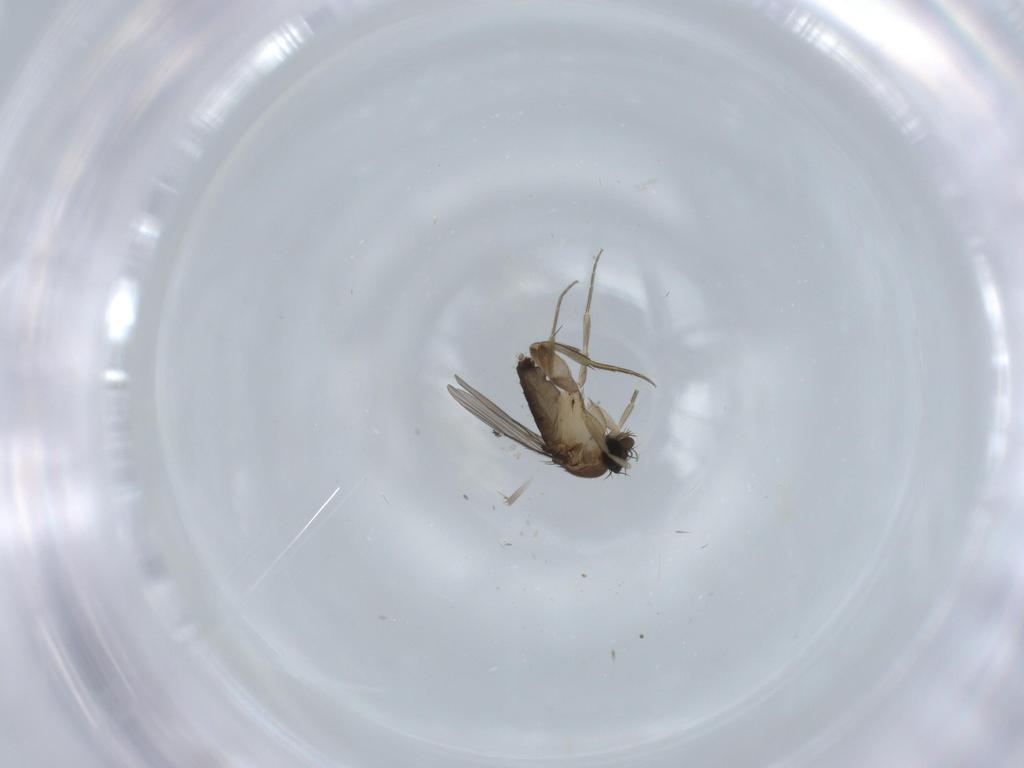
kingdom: Animalia
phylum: Arthropoda
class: Insecta
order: Diptera
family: Phoridae
